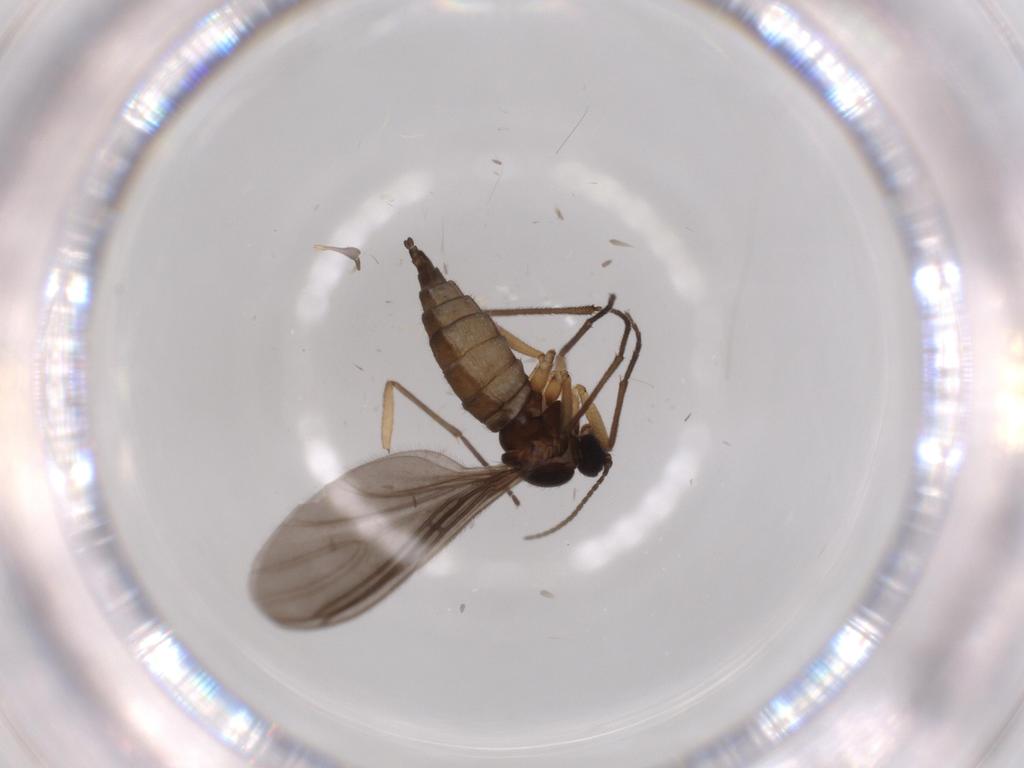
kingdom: Animalia
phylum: Arthropoda
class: Insecta
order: Diptera
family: Sciaridae
